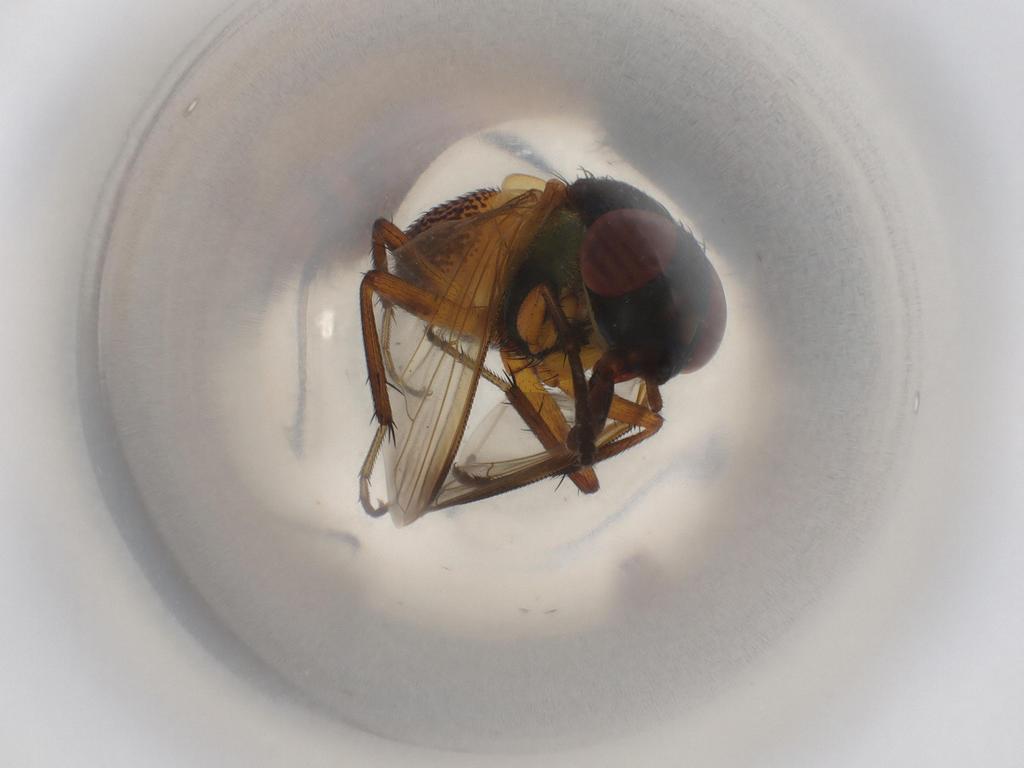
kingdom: Animalia
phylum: Arthropoda
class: Insecta
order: Diptera
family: Calliphoridae
